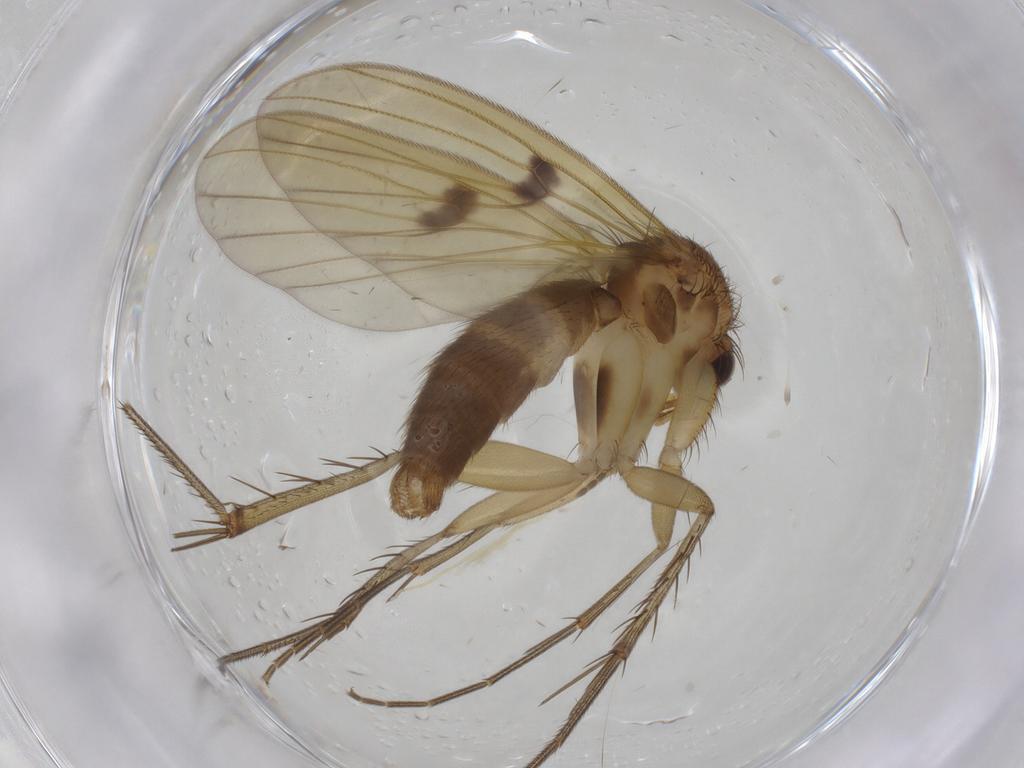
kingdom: Animalia
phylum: Arthropoda
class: Insecta
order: Diptera
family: Mycetophilidae
